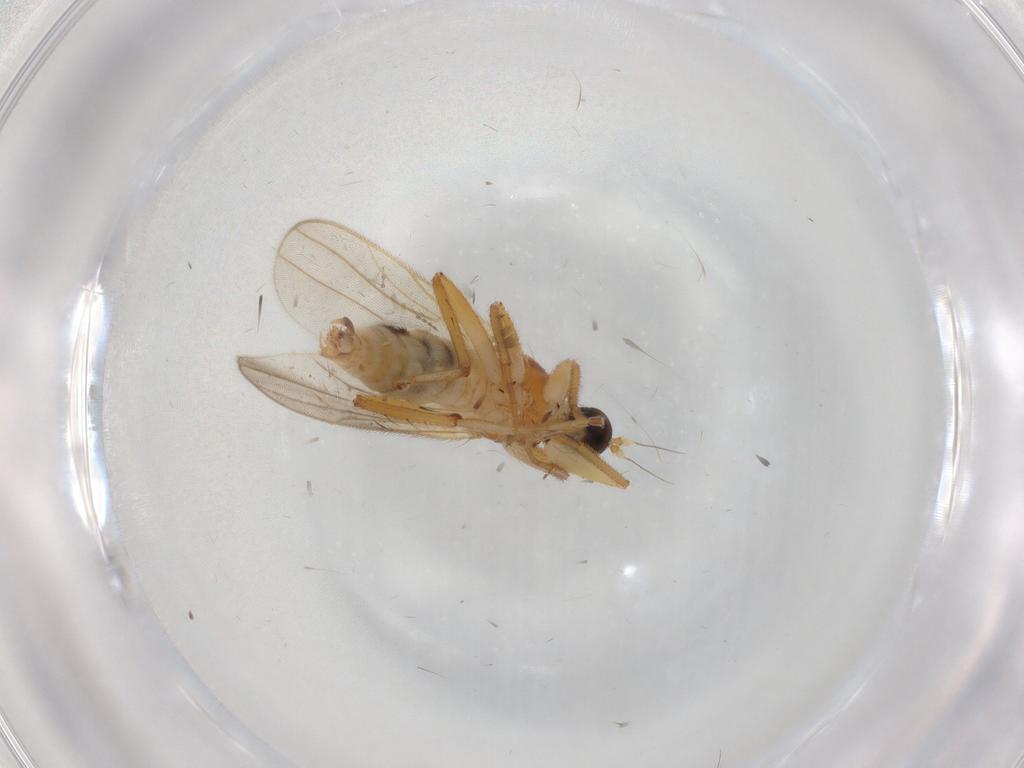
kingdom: Animalia
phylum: Arthropoda
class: Insecta
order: Diptera
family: Hybotidae
